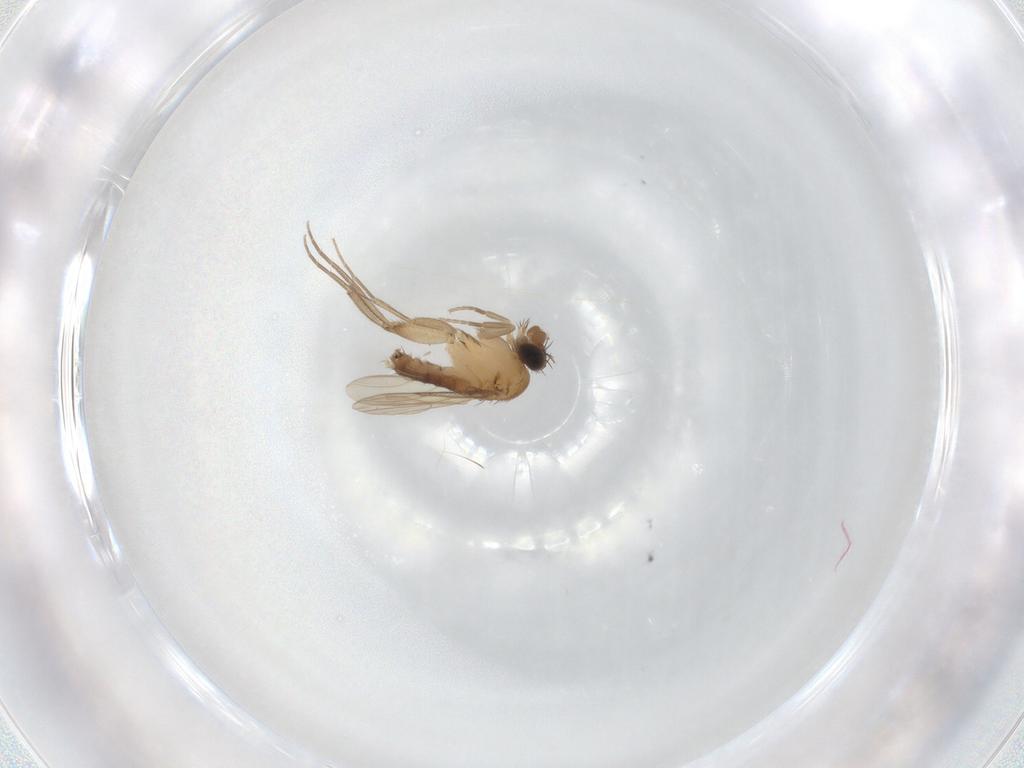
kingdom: Animalia
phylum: Arthropoda
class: Insecta
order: Diptera
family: Phoridae
